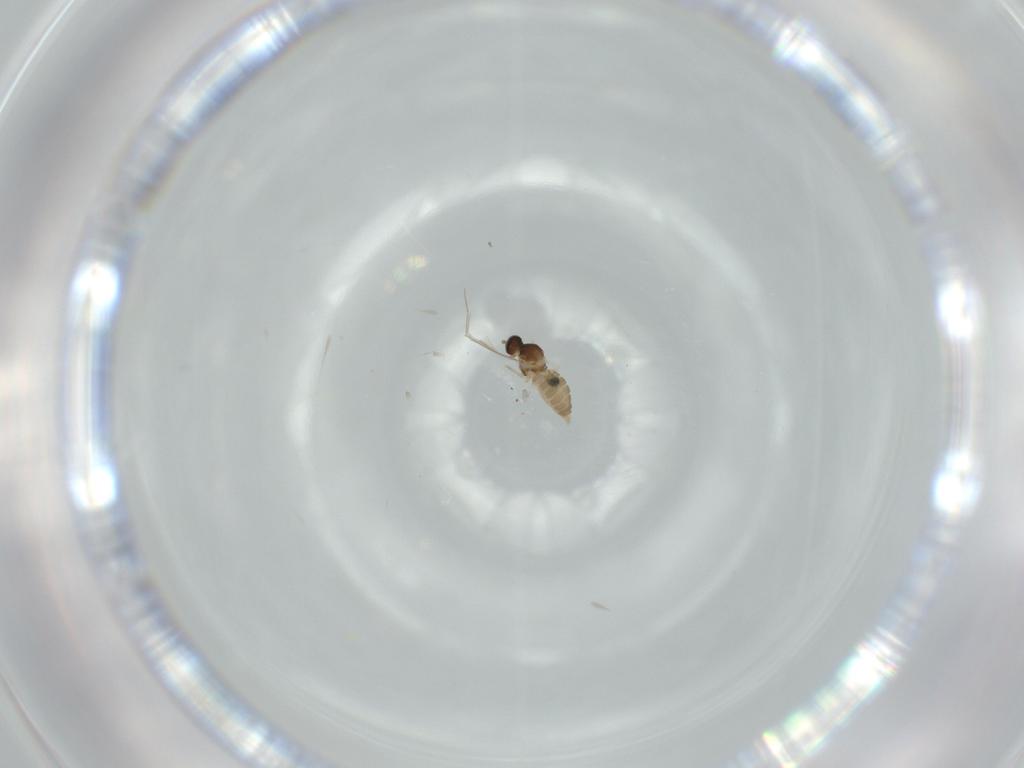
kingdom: Animalia
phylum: Arthropoda
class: Insecta
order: Diptera
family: Cecidomyiidae
